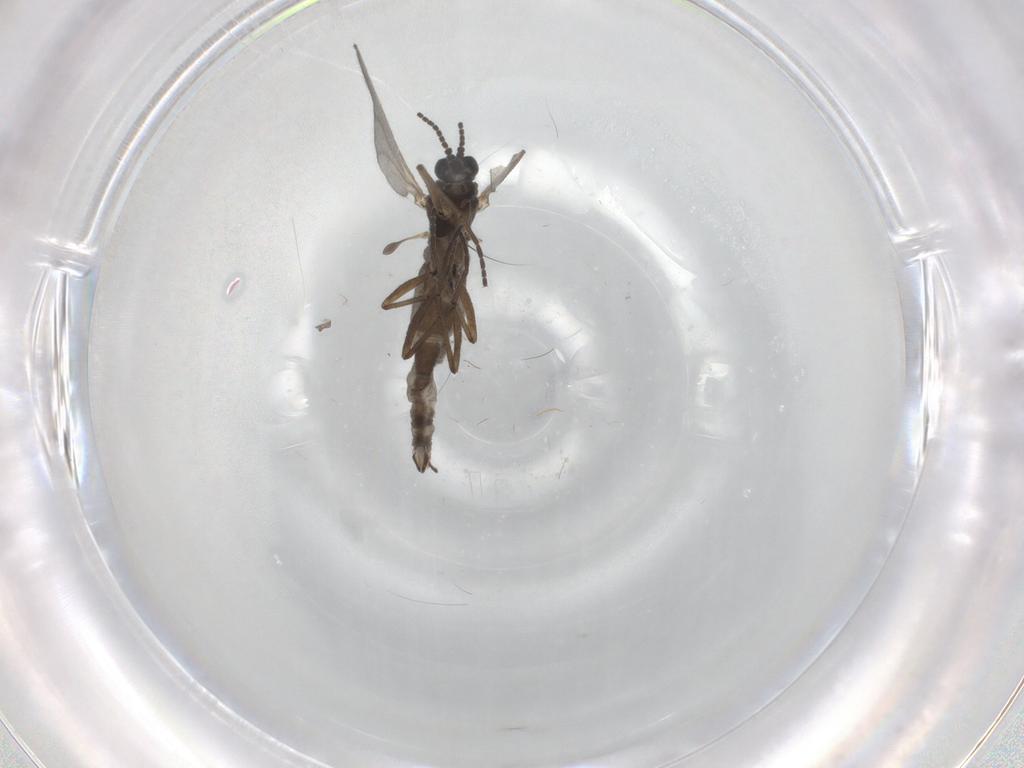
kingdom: Animalia
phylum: Arthropoda
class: Insecta
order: Diptera
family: Sciaridae
